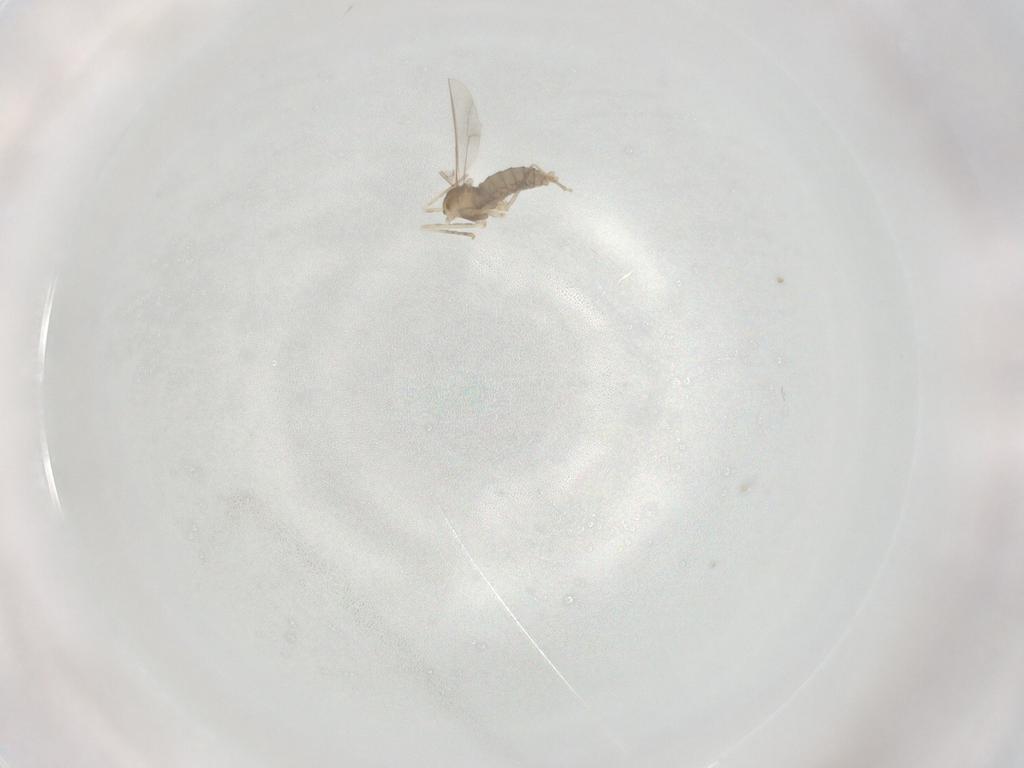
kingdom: Animalia
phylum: Arthropoda
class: Insecta
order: Diptera
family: Cecidomyiidae
